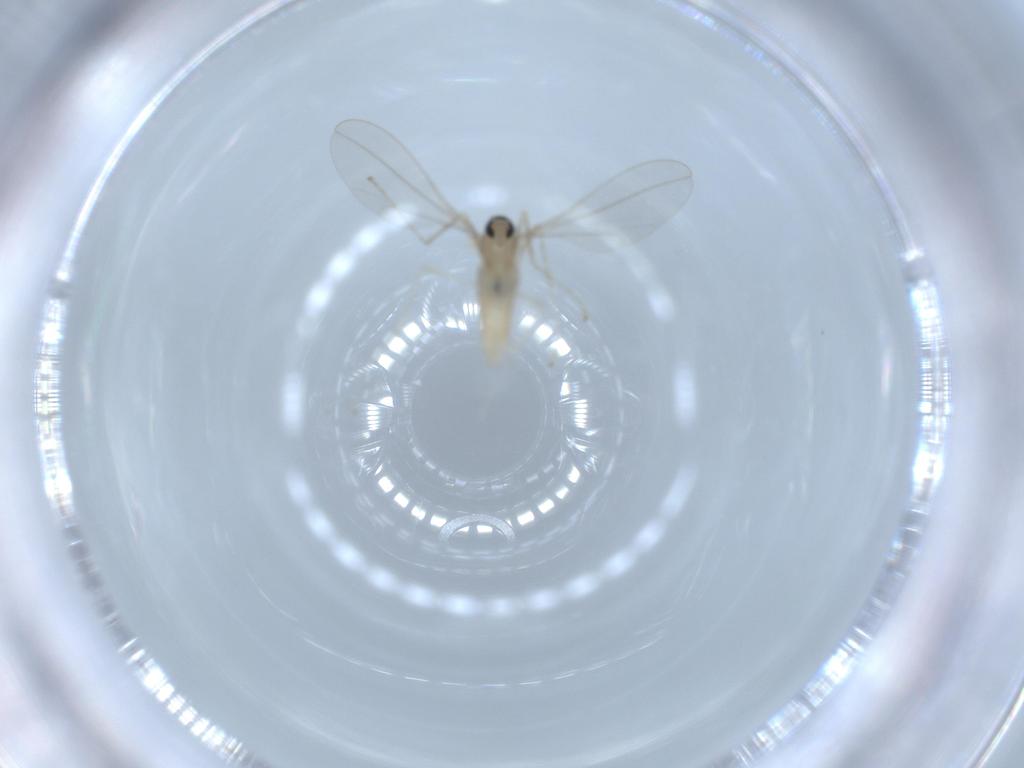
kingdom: Animalia
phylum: Arthropoda
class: Insecta
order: Diptera
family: Cecidomyiidae
